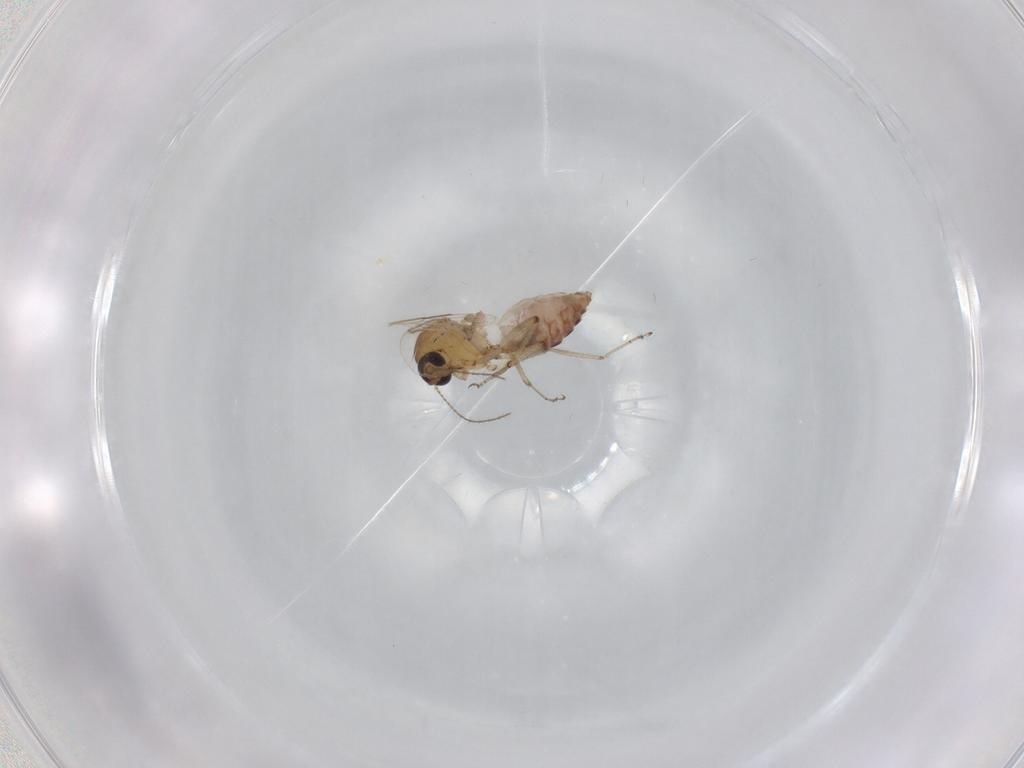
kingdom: Animalia
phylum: Arthropoda
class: Insecta
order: Diptera
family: Ceratopogonidae
